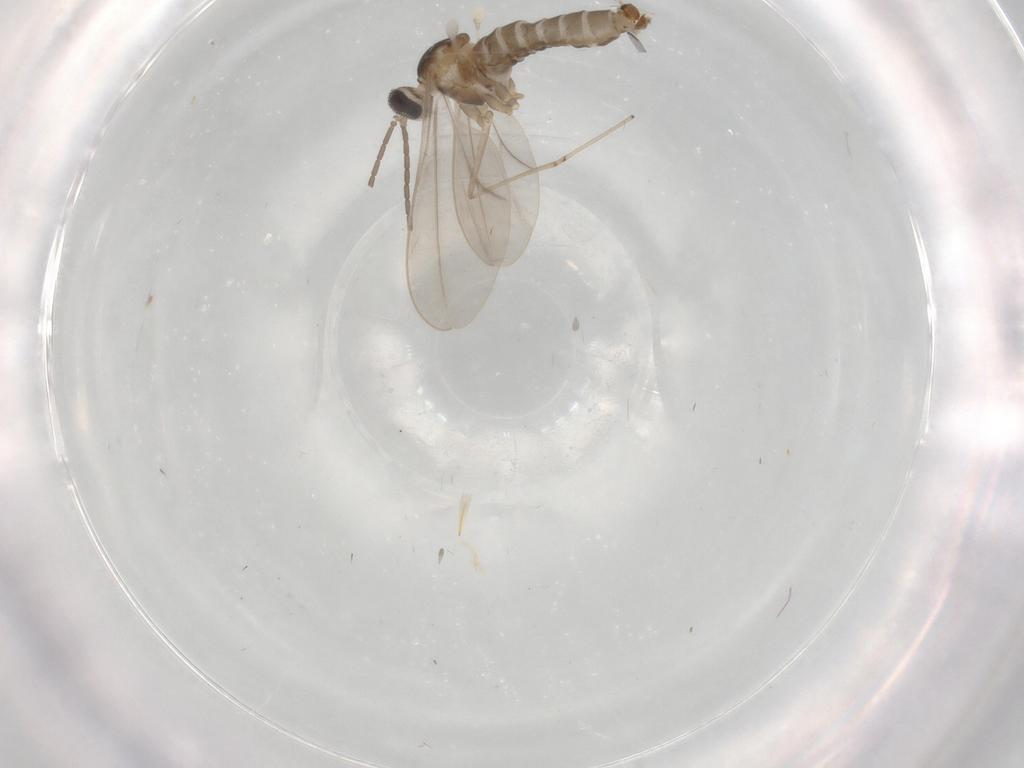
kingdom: Animalia
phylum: Arthropoda
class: Insecta
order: Diptera
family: Cecidomyiidae
